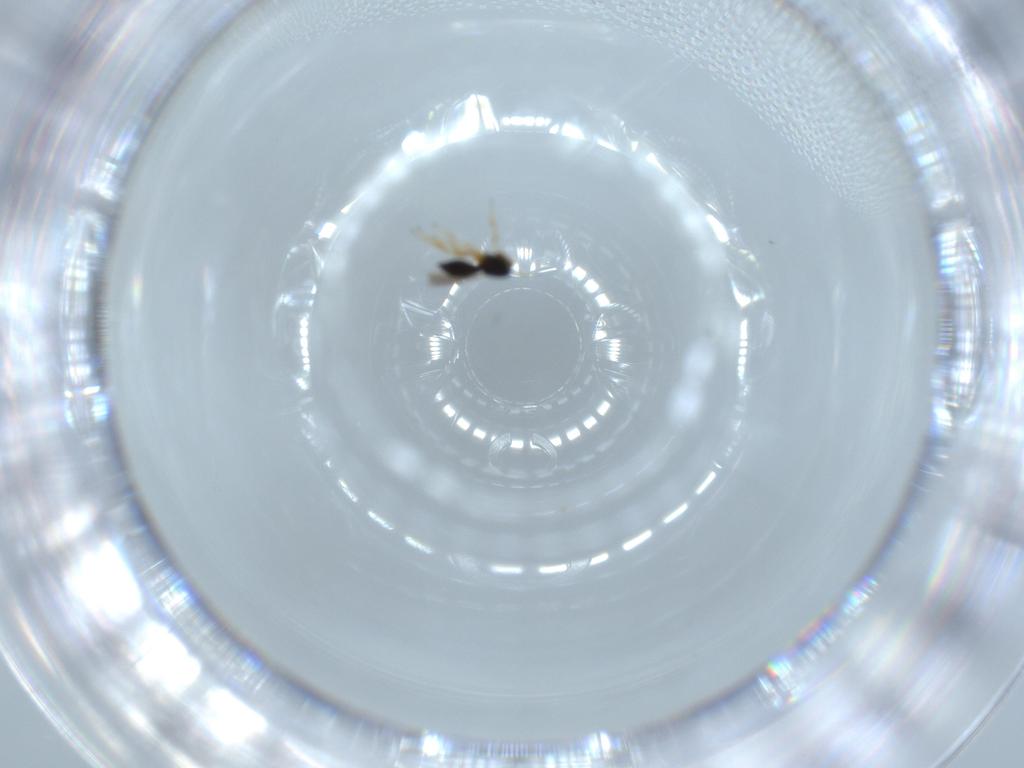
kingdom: Animalia
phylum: Arthropoda
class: Insecta
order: Hymenoptera
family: Scelionidae
